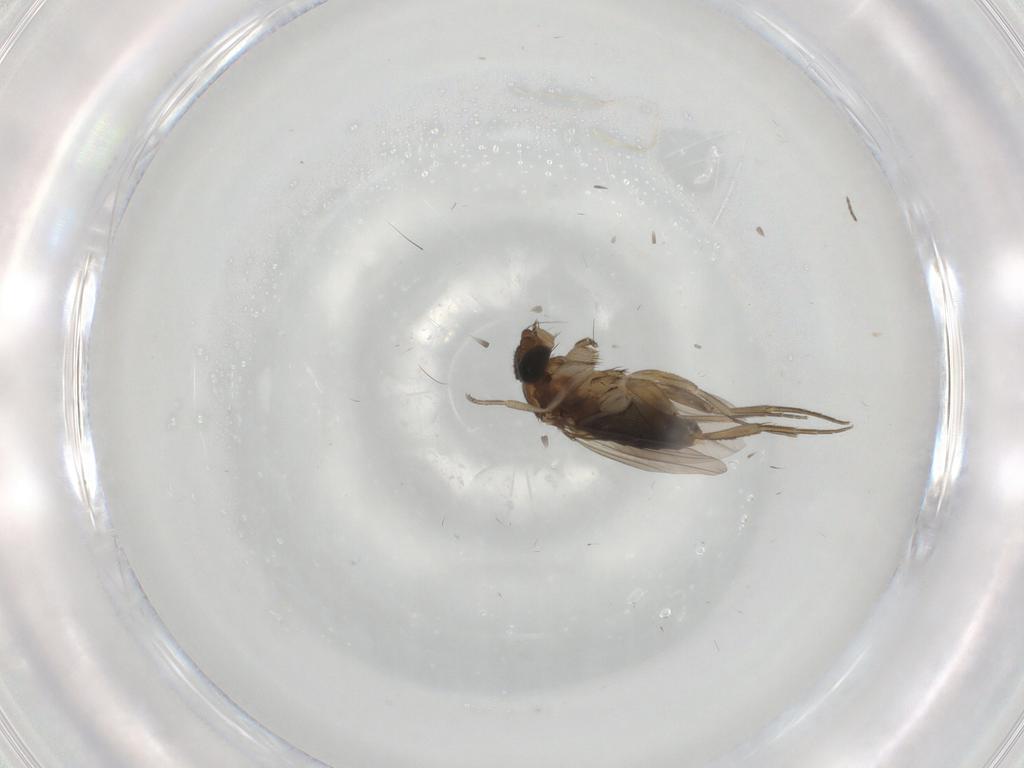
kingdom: Animalia
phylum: Arthropoda
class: Insecta
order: Diptera
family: Phoridae
